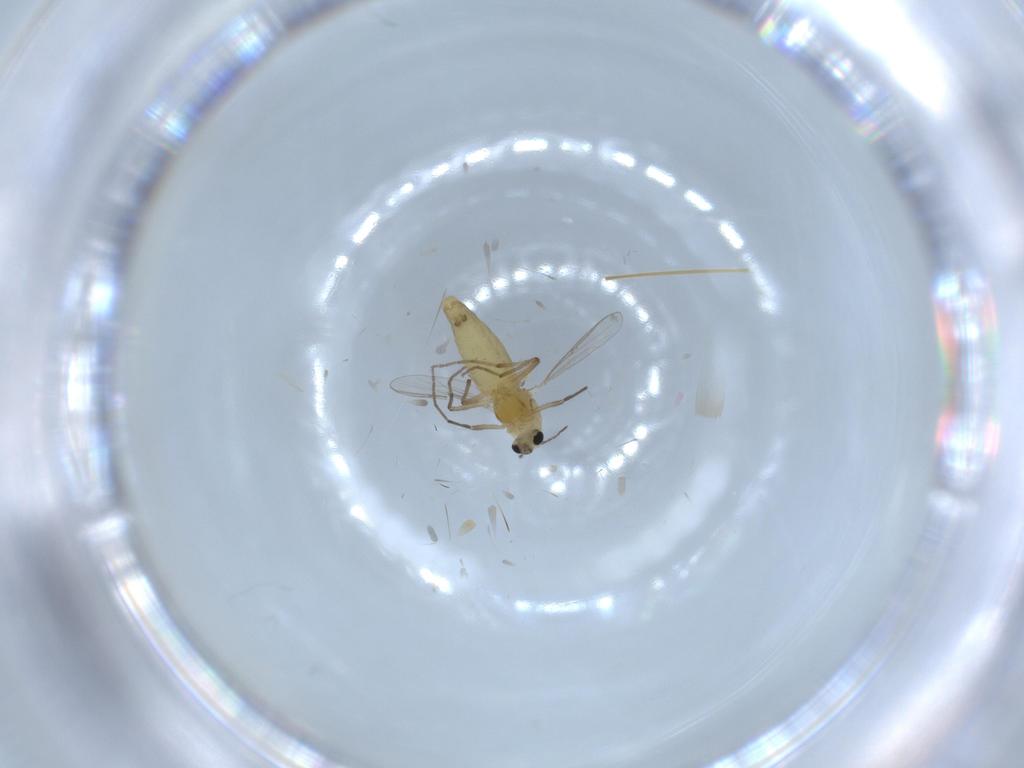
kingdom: Animalia
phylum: Arthropoda
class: Insecta
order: Diptera
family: Chironomidae
